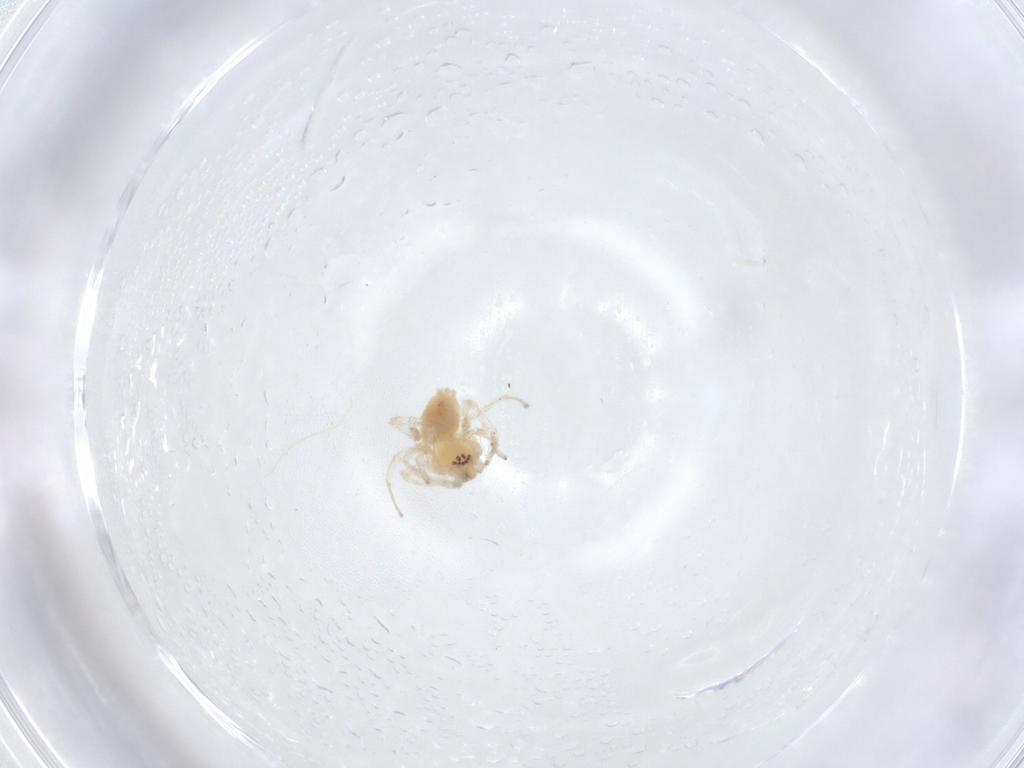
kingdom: Animalia
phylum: Arthropoda
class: Arachnida
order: Araneae
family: Anyphaenidae
